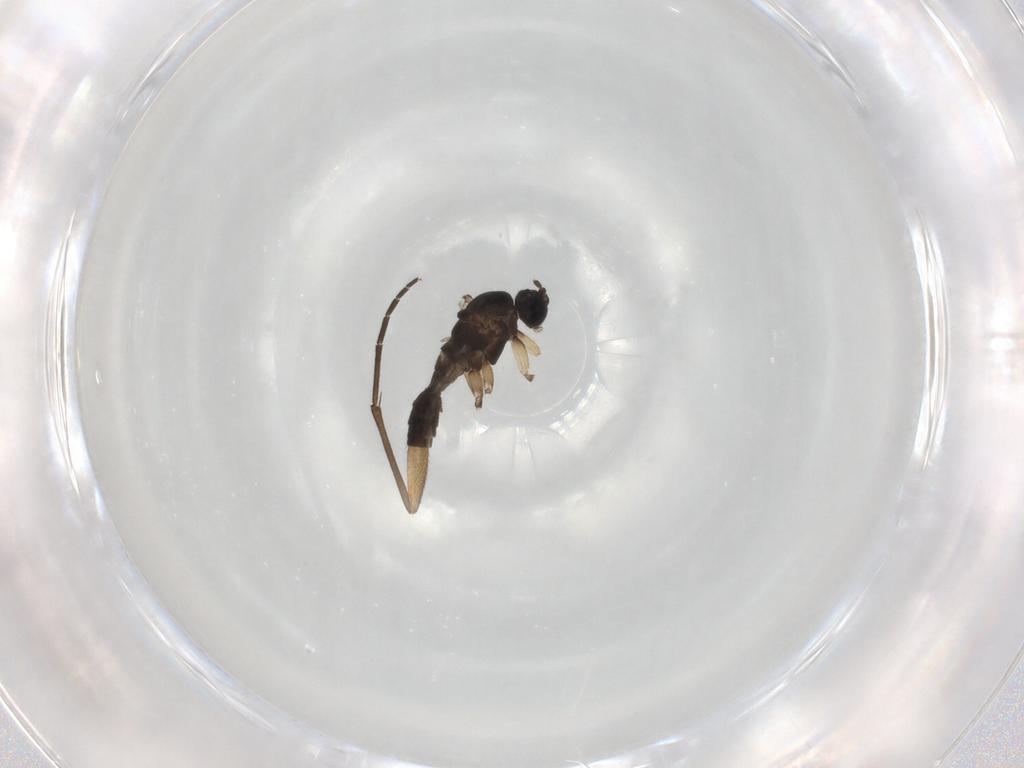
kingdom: Animalia
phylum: Arthropoda
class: Insecta
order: Diptera
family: Sciaridae
